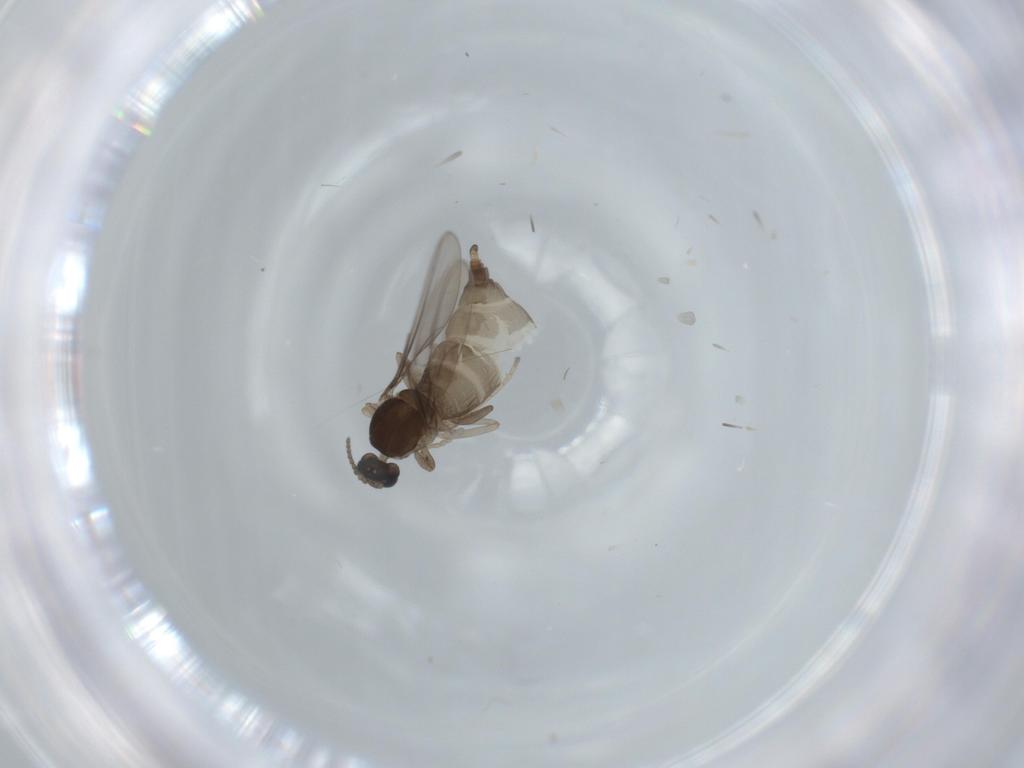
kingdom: Animalia
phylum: Arthropoda
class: Insecta
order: Diptera
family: Cecidomyiidae
